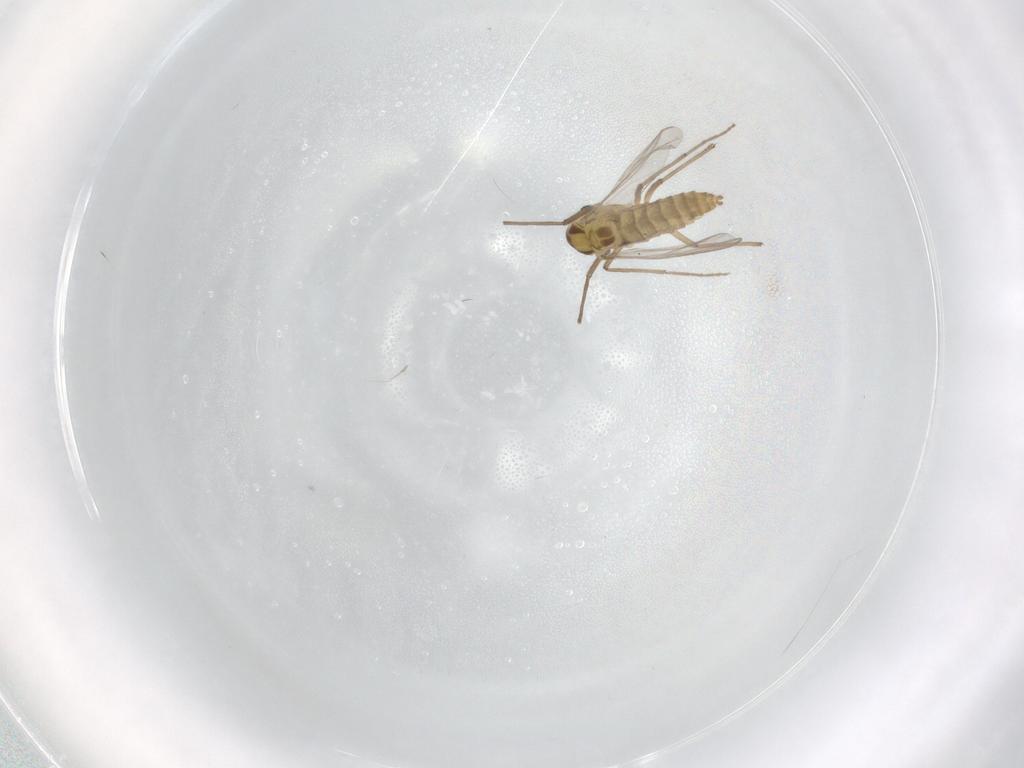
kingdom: Animalia
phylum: Arthropoda
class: Insecta
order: Diptera
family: Chironomidae
